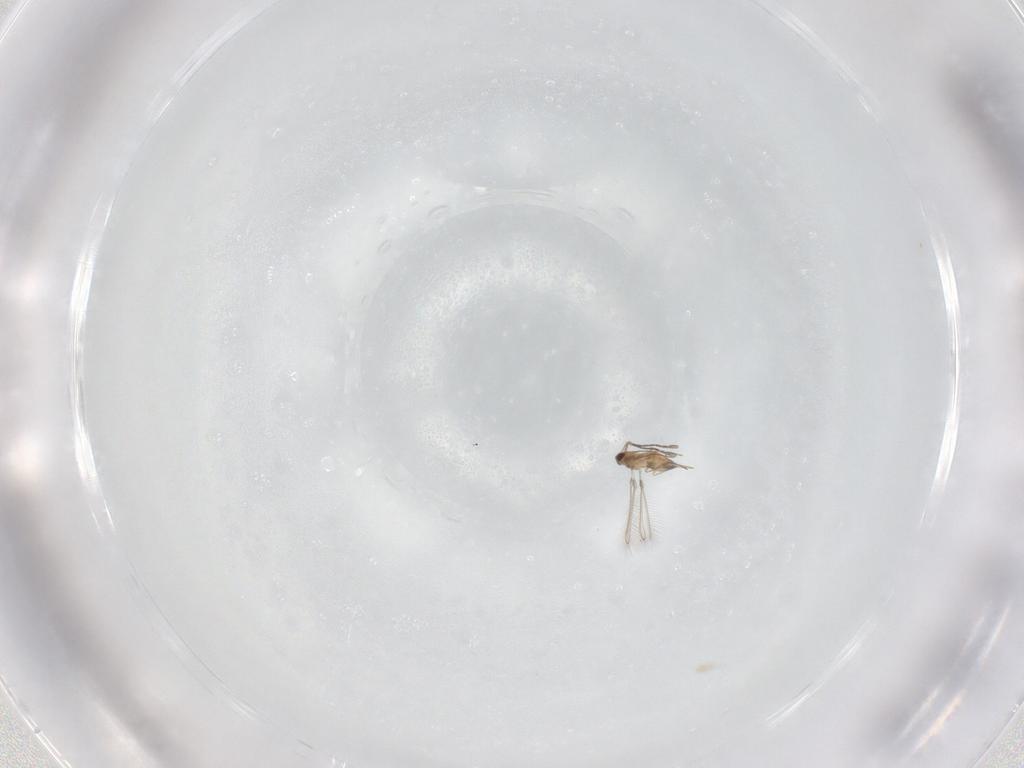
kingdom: Animalia
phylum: Arthropoda
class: Insecta
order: Hymenoptera
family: Mymaridae
